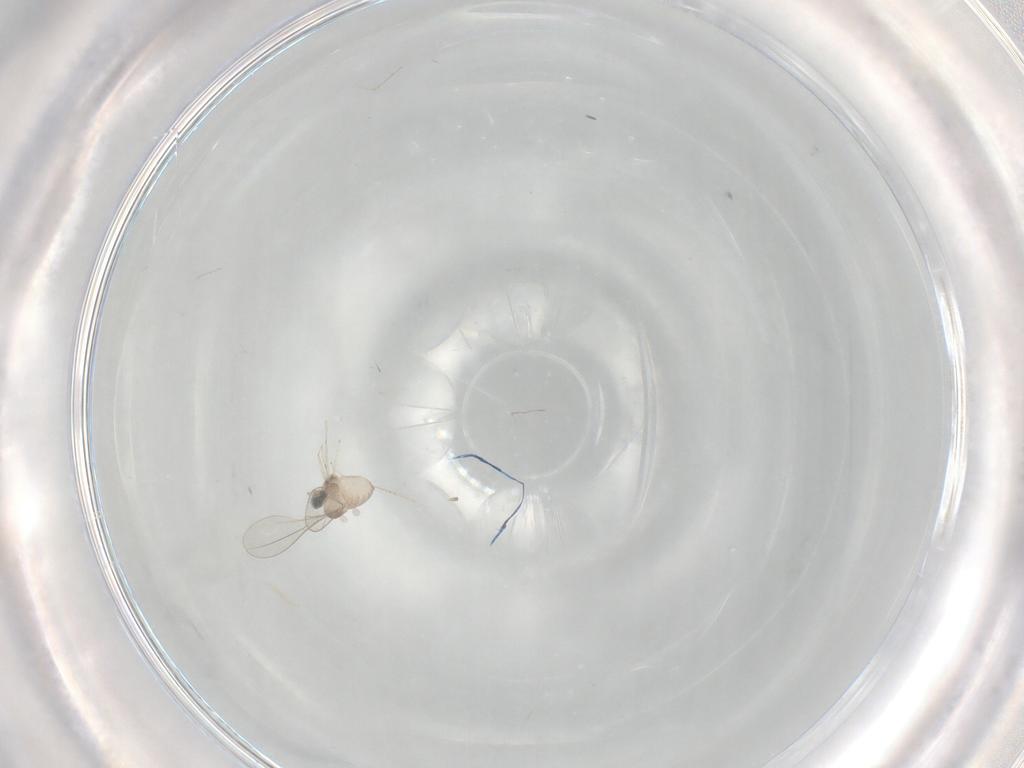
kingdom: Animalia
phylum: Arthropoda
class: Insecta
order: Diptera
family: Cecidomyiidae
